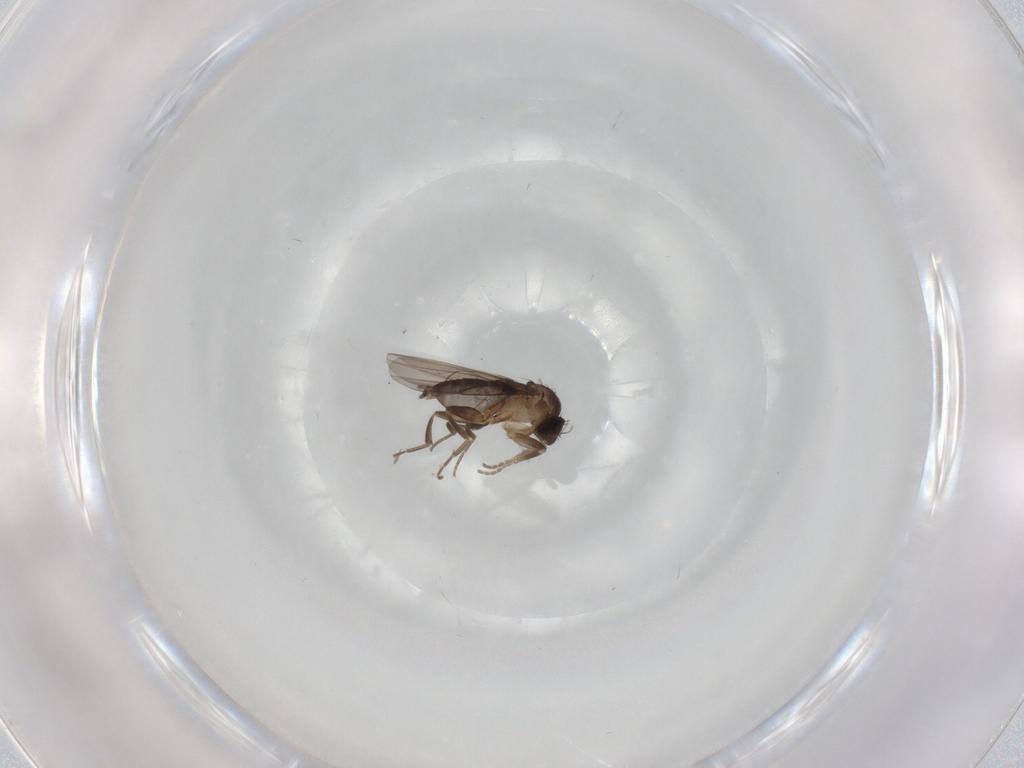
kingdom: Animalia
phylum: Arthropoda
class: Insecta
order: Diptera
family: Phoridae
